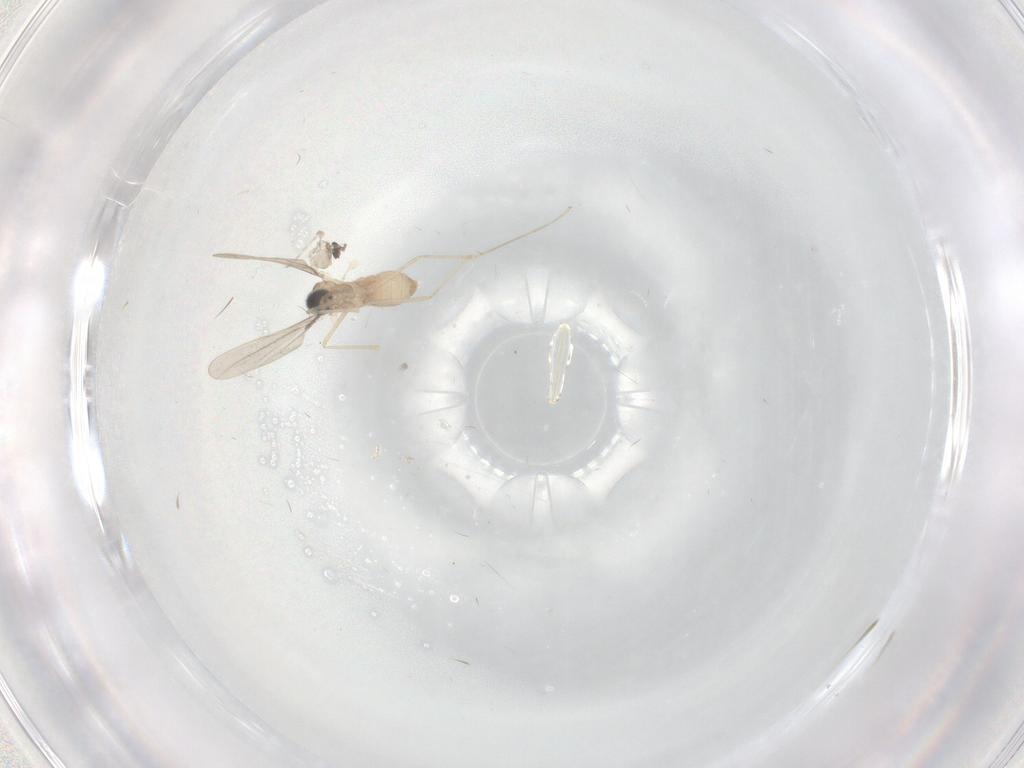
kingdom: Animalia
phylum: Arthropoda
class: Insecta
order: Diptera
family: Cecidomyiidae
